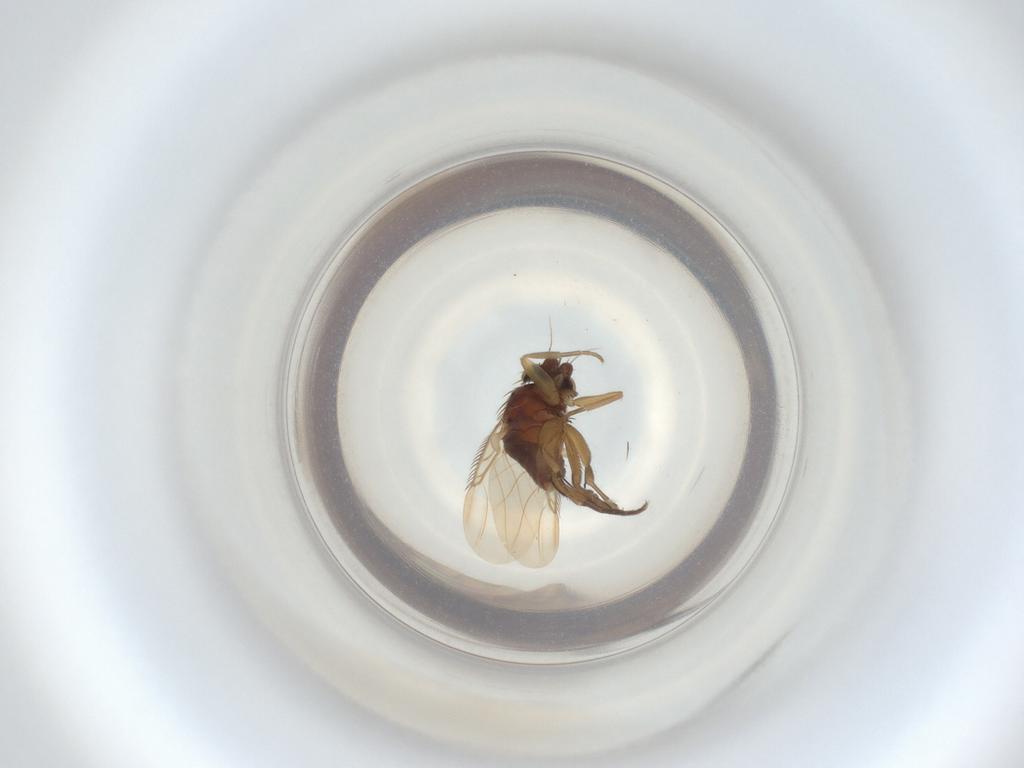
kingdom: Animalia
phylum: Arthropoda
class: Insecta
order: Diptera
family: Phoridae
